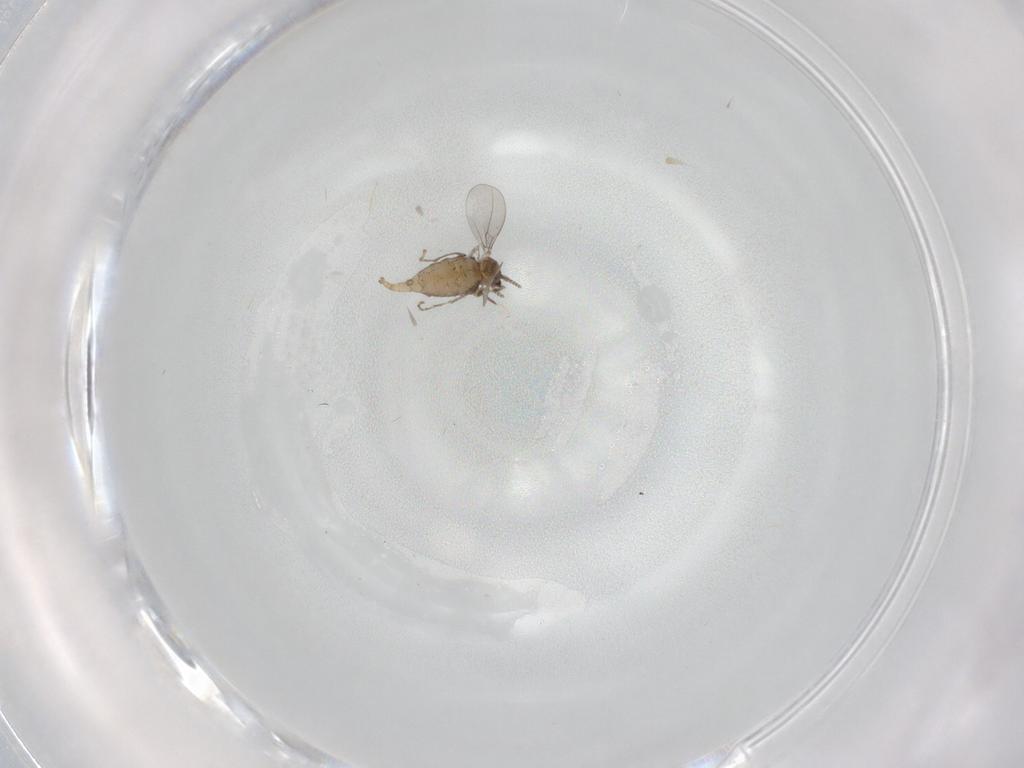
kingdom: Animalia
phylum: Arthropoda
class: Insecta
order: Diptera
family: Cecidomyiidae
